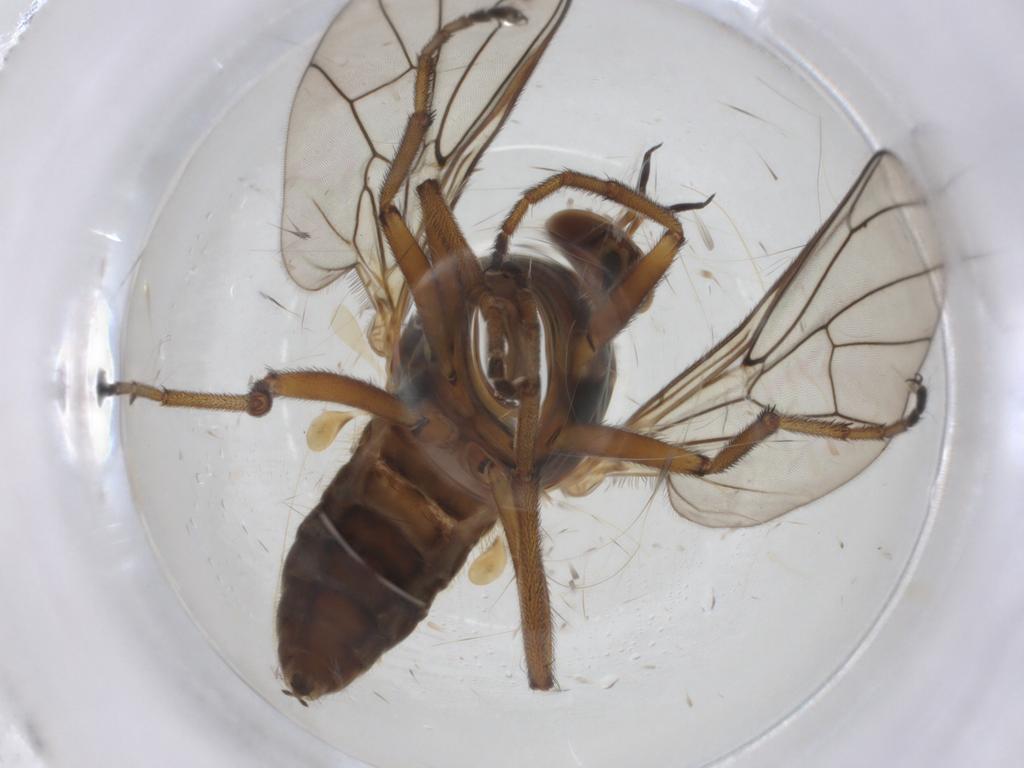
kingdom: Animalia
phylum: Arthropoda
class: Insecta
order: Diptera
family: Empididae
